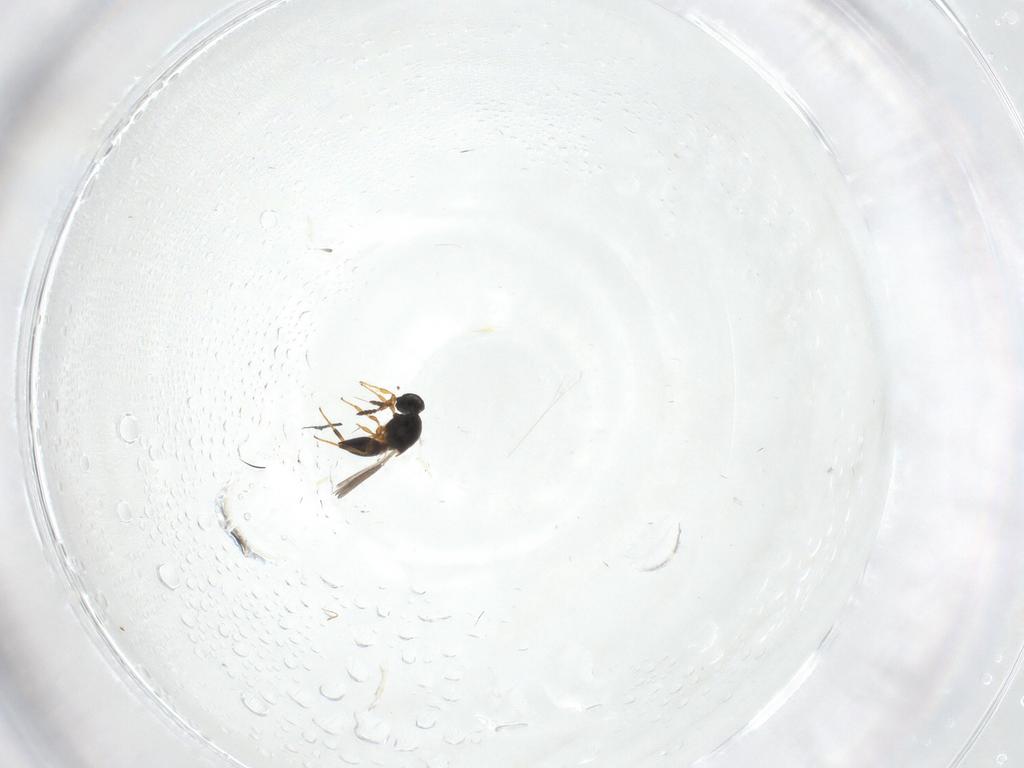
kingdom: Animalia
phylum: Arthropoda
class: Insecta
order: Hymenoptera
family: Platygastridae
